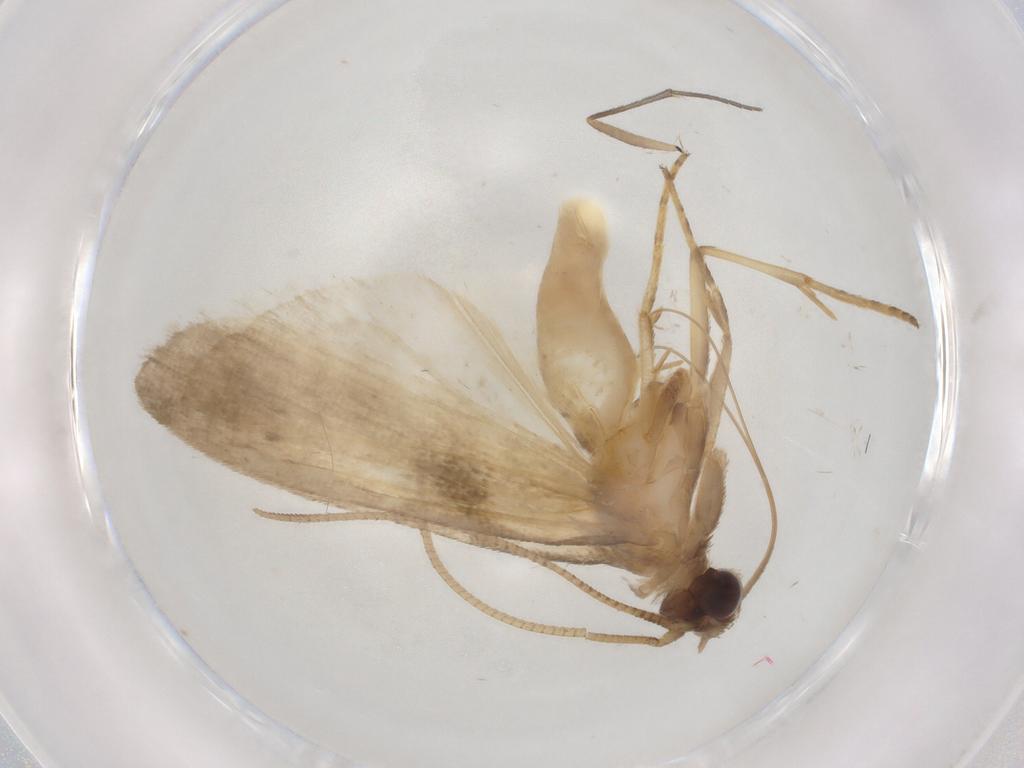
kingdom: Animalia
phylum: Arthropoda
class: Insecta
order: Lepidoptera
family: Noctuidae
